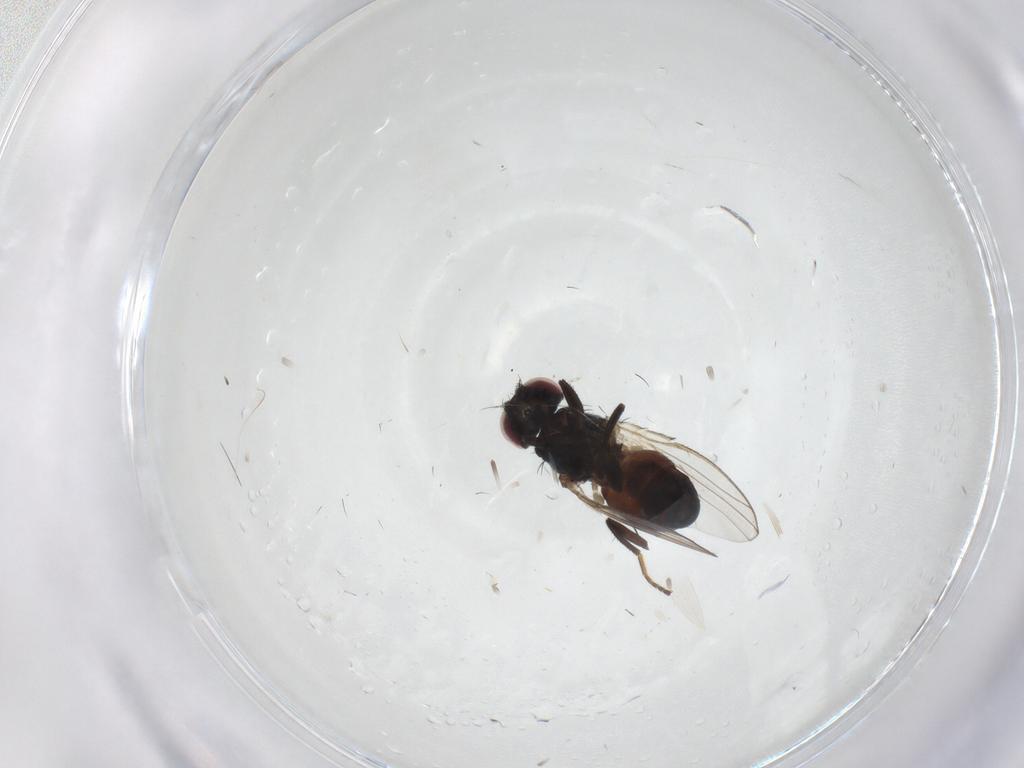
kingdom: Animalia
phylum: Arthropoda
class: Insecta
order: Diptera
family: Carnidae
